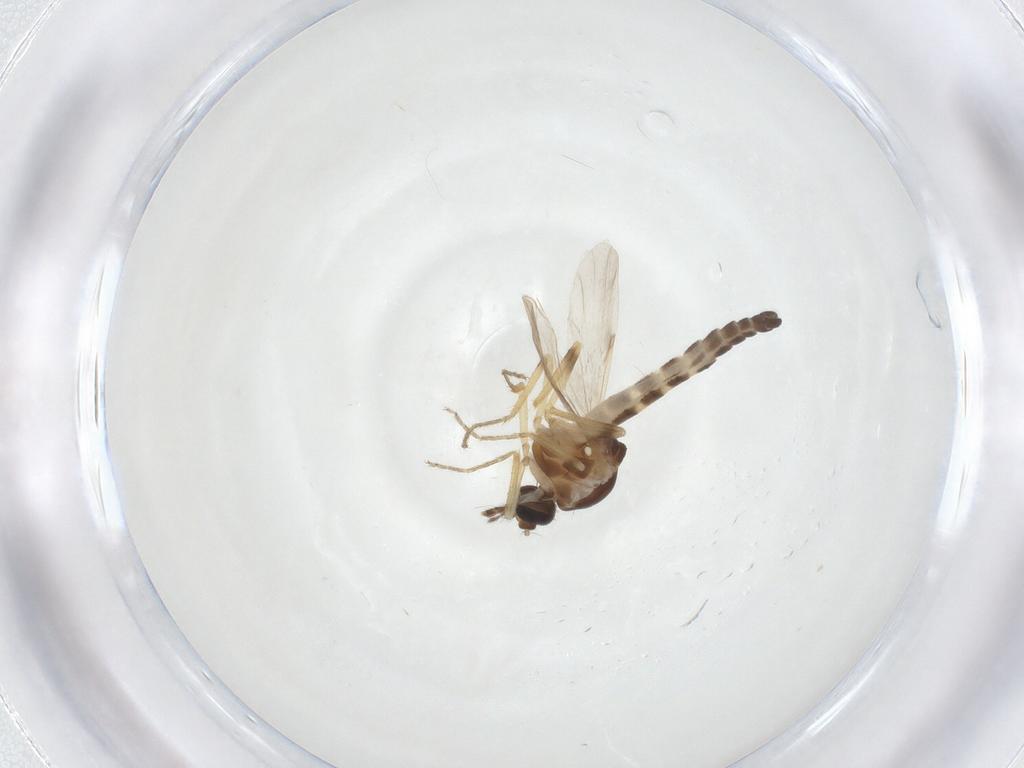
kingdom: Animalia
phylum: Arthropoda
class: Insecta
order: Diptera
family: Ceratopogonidae
